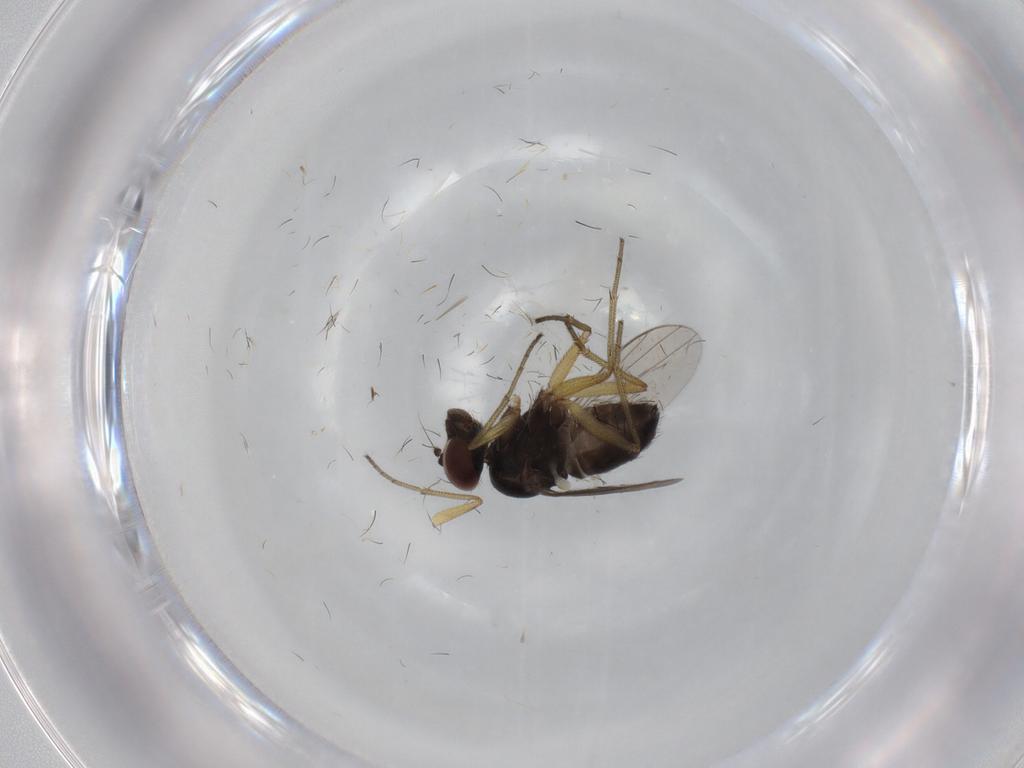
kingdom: Animalia
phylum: Arthropoda
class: Insecta
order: Diptera
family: Dolichopodidae
